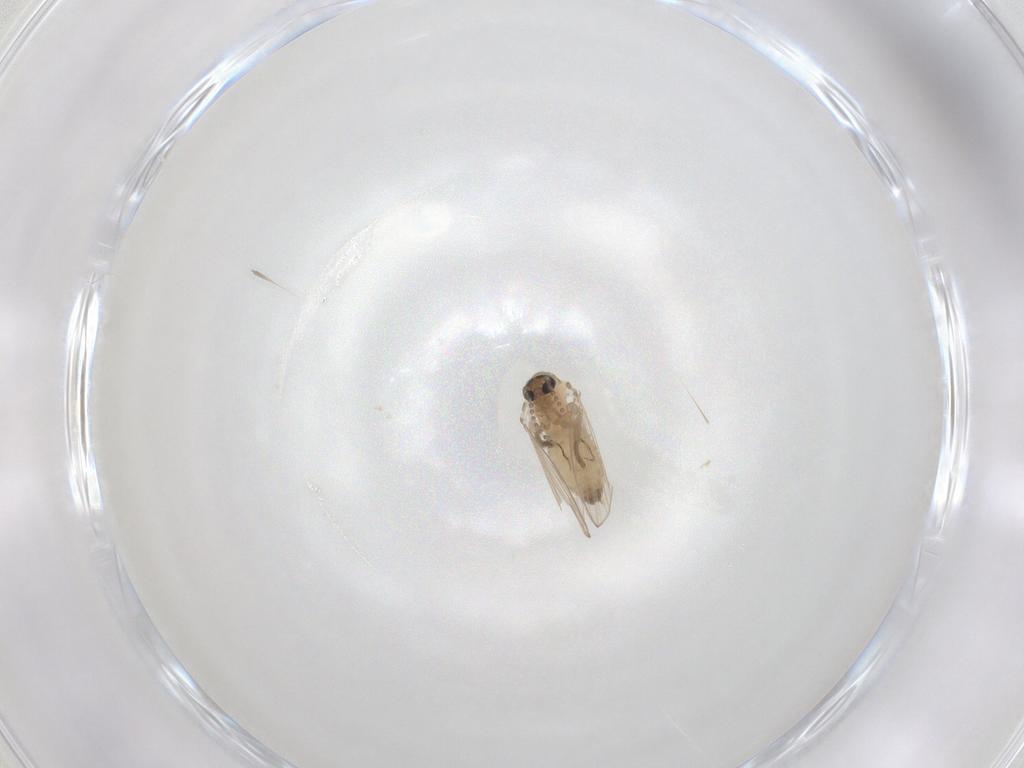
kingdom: Animalia
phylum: Arthropoda
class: Insecta
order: Diptera
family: Psychodidae
